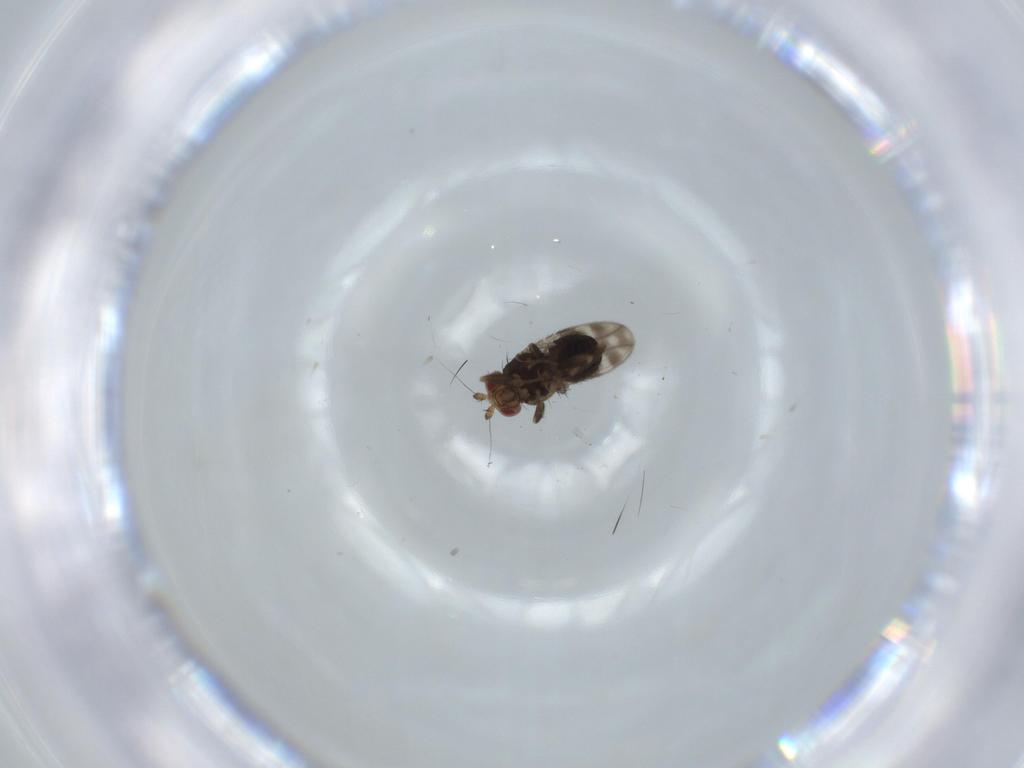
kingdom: Animalia
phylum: Arthropoda
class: Insecta
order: Diptera
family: Sphaeroceridae
